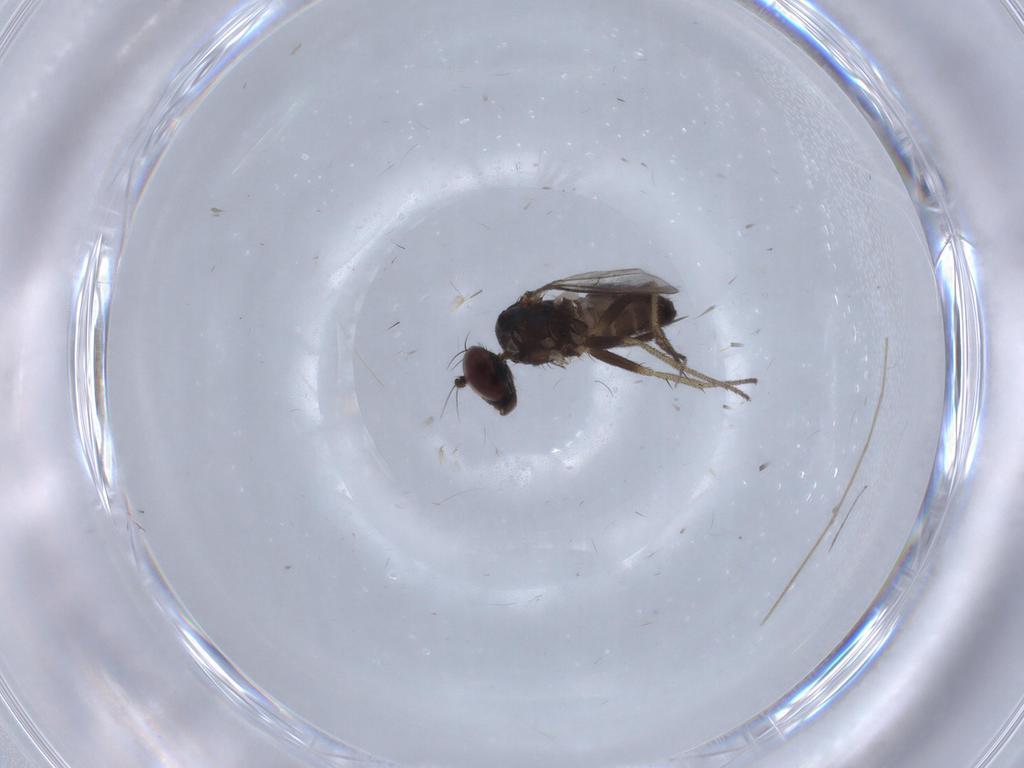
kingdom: Animalia
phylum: Arthropoda
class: Insecta
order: Diptera
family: Dolichopodidae
